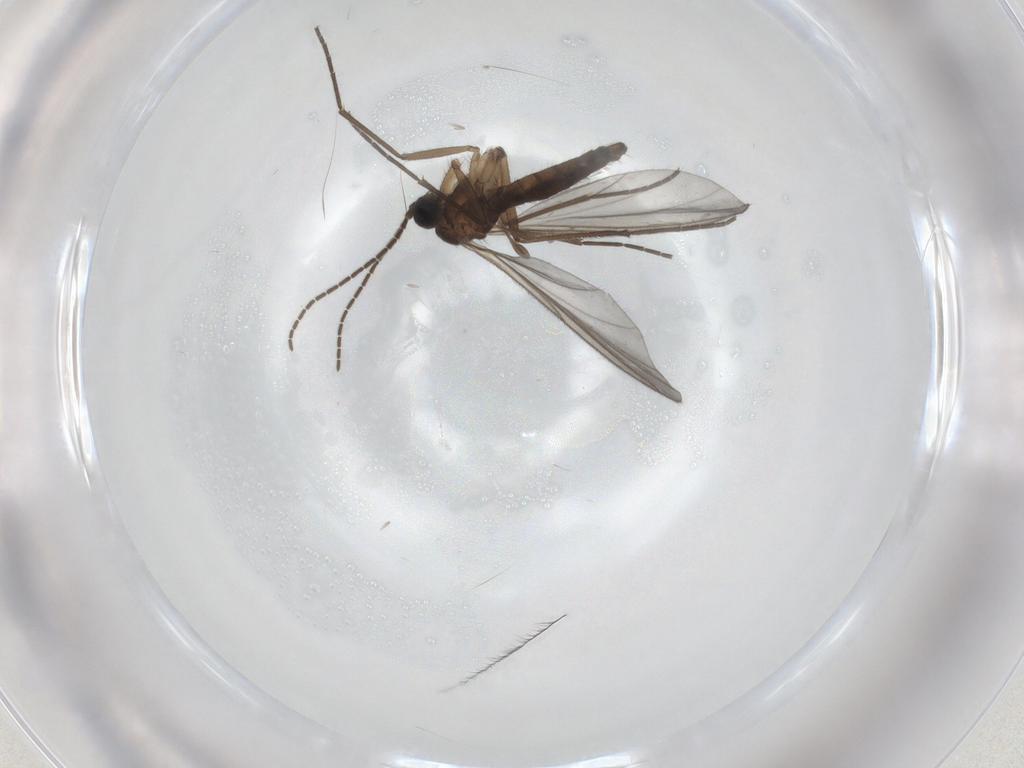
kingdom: Animalia
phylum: Arthropoda
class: Insecta
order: Diptera
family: Sciaridae
